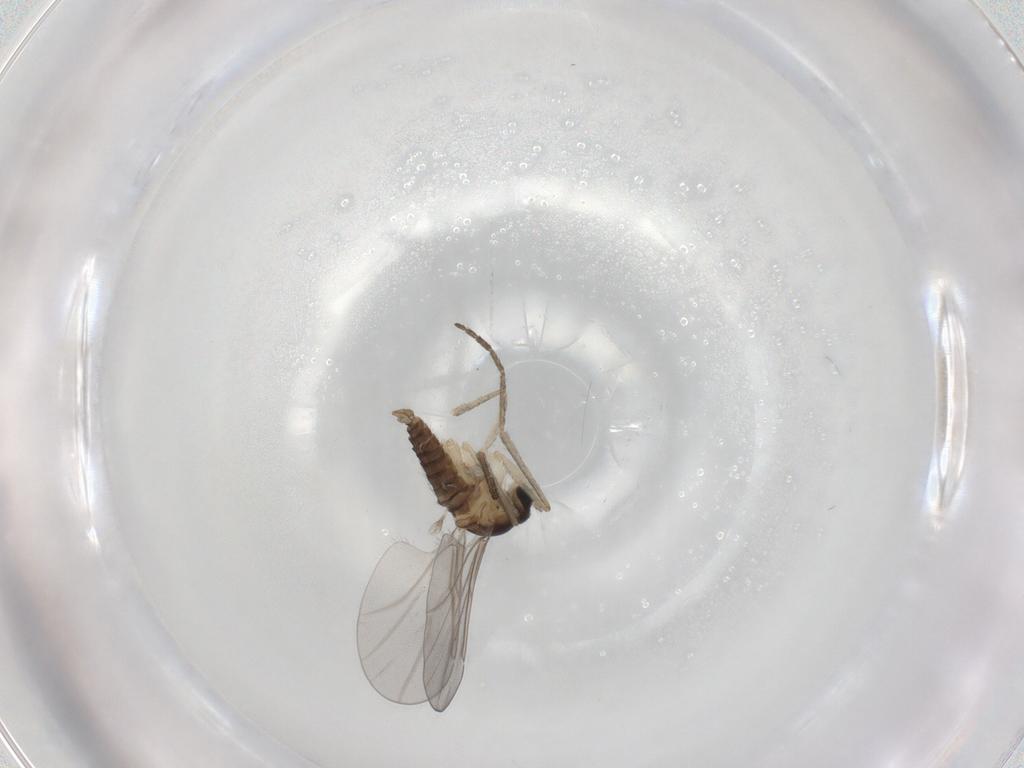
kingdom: Animalia
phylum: Arthropoda
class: Insecta
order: Diptera
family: Cecidomyiidae
